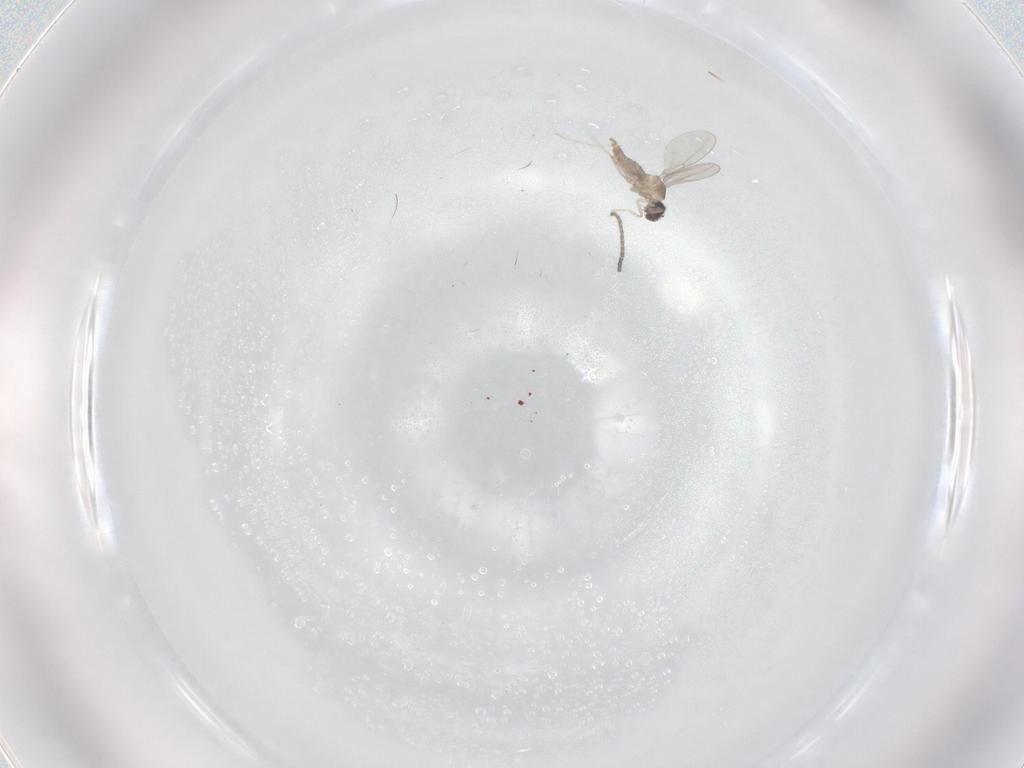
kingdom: Animalia
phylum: Arthropoda
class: Insecta
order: Diptera
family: Cecidomyiidae
